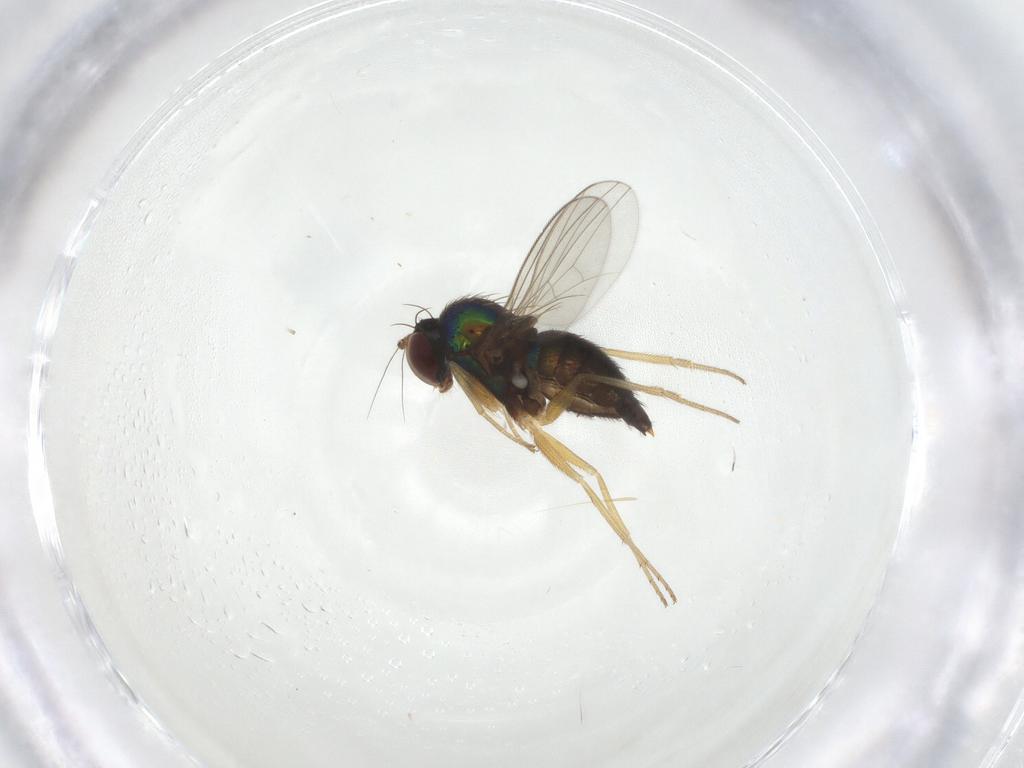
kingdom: Animalia
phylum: Arthropoda
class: Insecta
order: Diptera
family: Dolichopodidae
